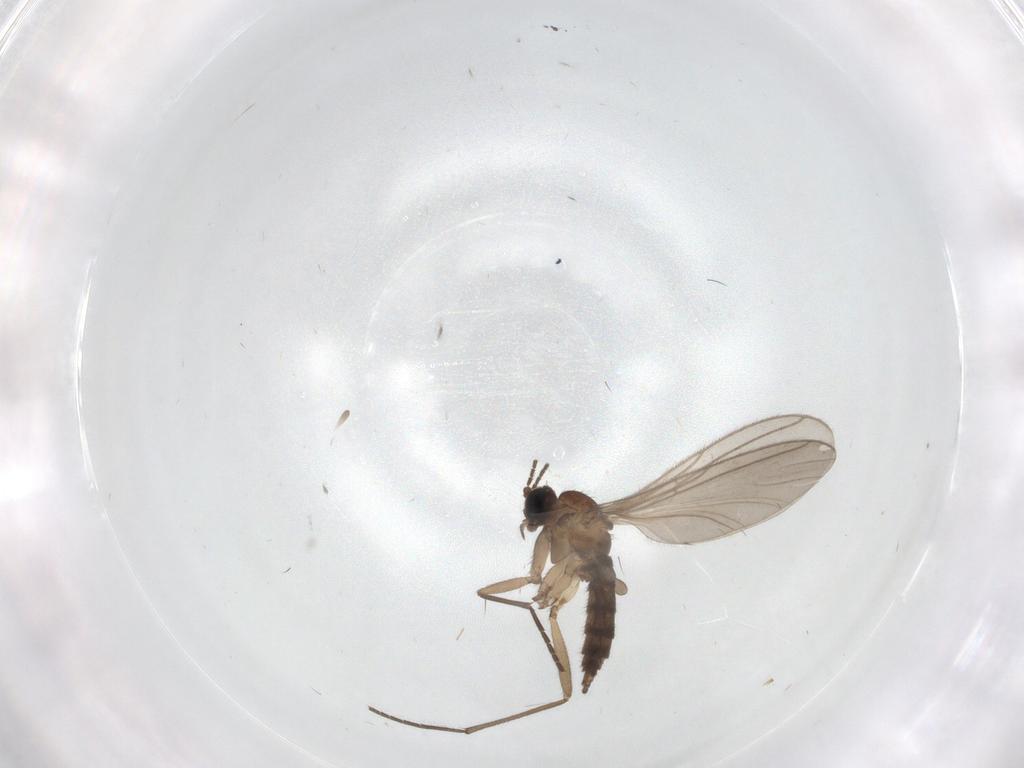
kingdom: Animalia
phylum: Arthropoda
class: Insecta
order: Diptera
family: Sciaridae
